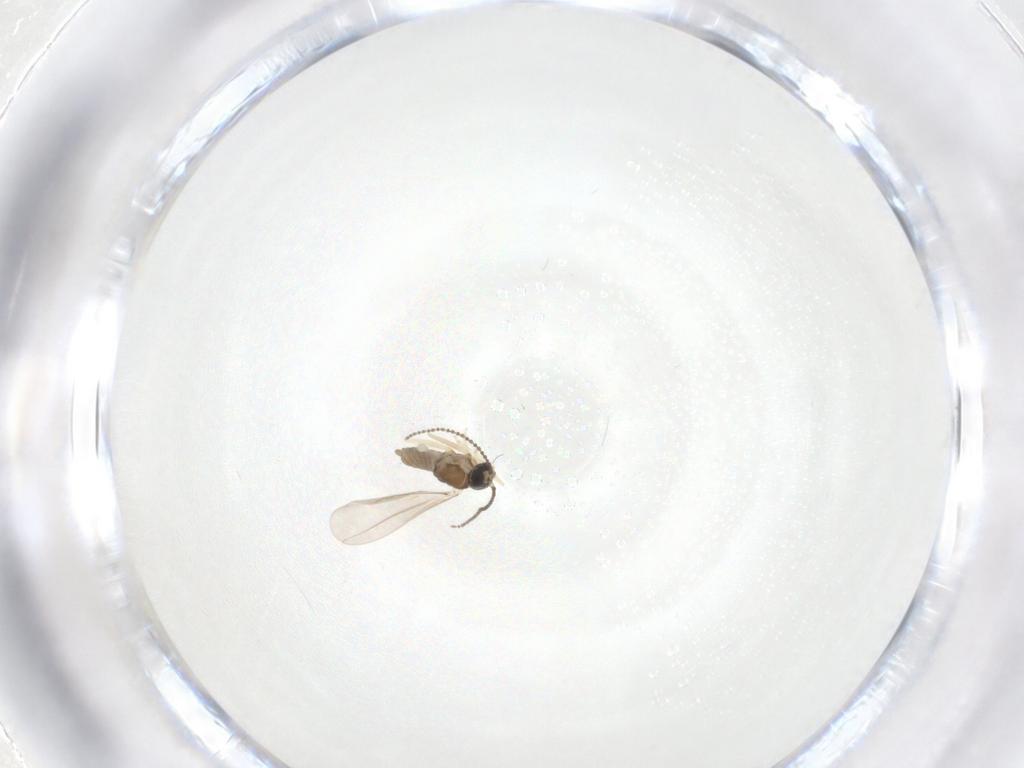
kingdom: Animalia
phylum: Arthropoda
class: Insecta
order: Diptera
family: Cecidomyiidae
